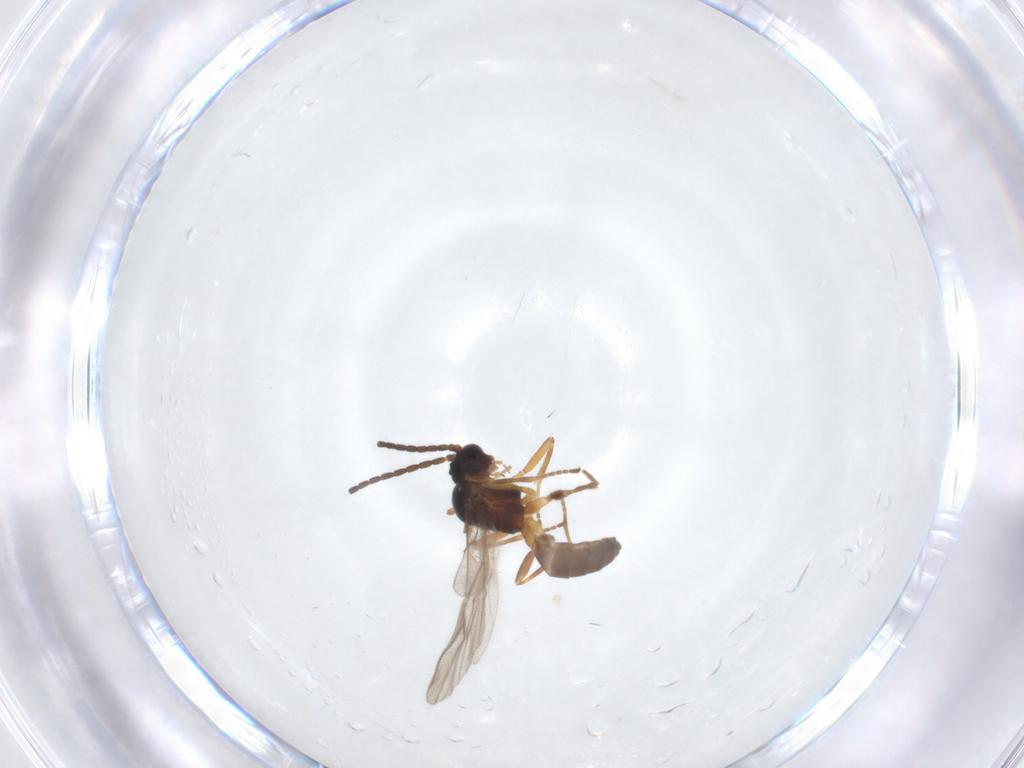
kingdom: Animalia
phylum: Arthropoda
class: Insecta
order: Hymenoptera
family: Braconidae
